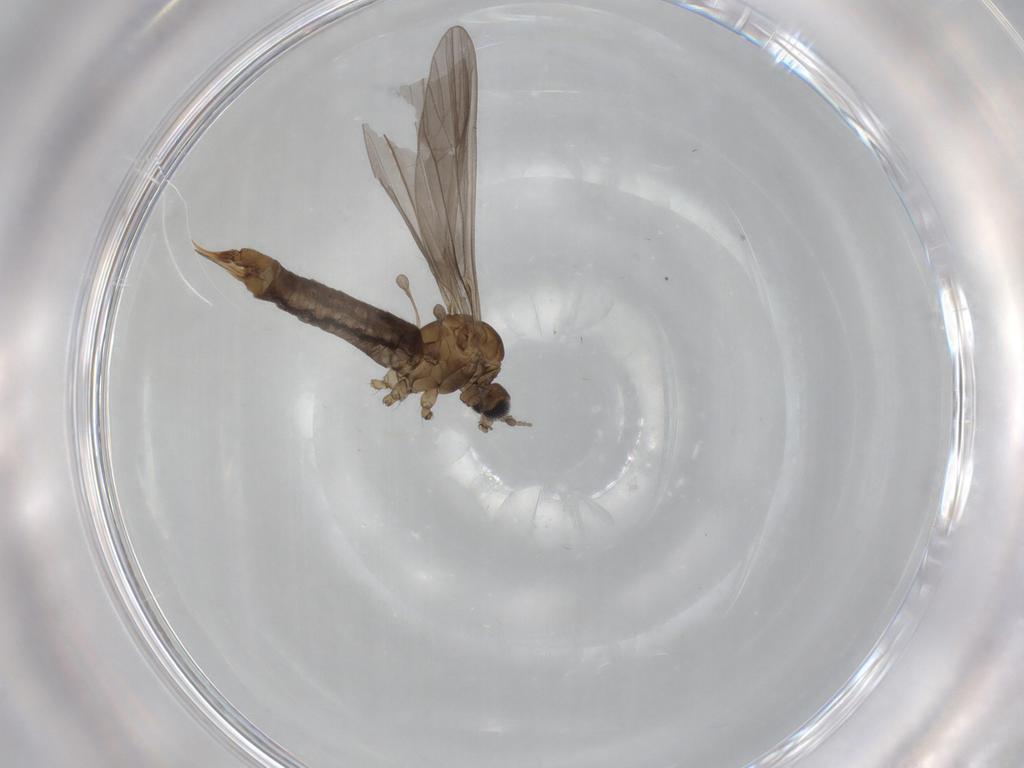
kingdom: Animalia
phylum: Arthropoda
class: Insecta
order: Diptera
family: Limoniidae
